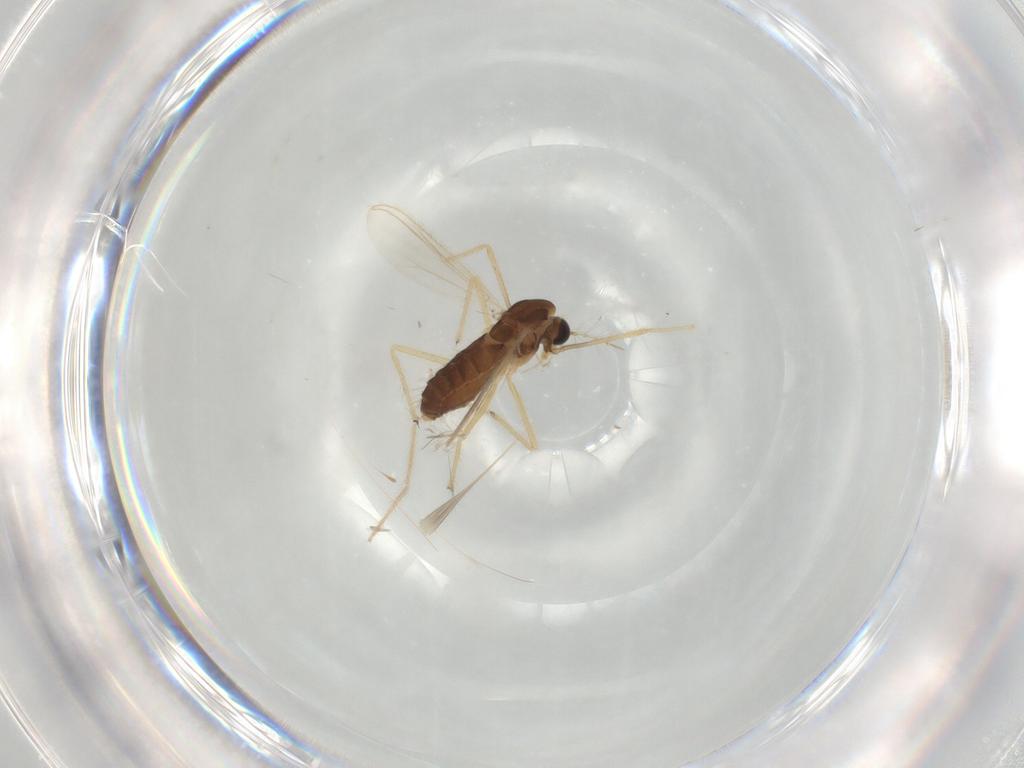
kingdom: Animalia
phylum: Arthropoda
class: Insecta
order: Diptera
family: Chironomidae
